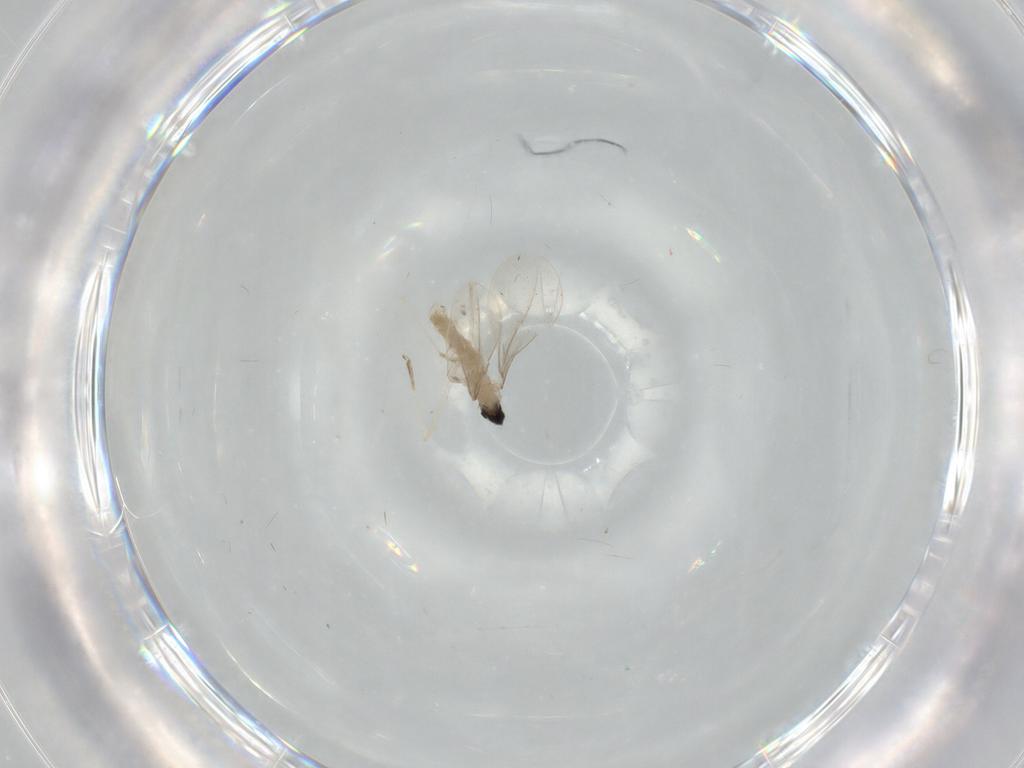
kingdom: Animalia
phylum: Arthropoda
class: Insecta
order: Diptera
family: Cecidomyiidae
